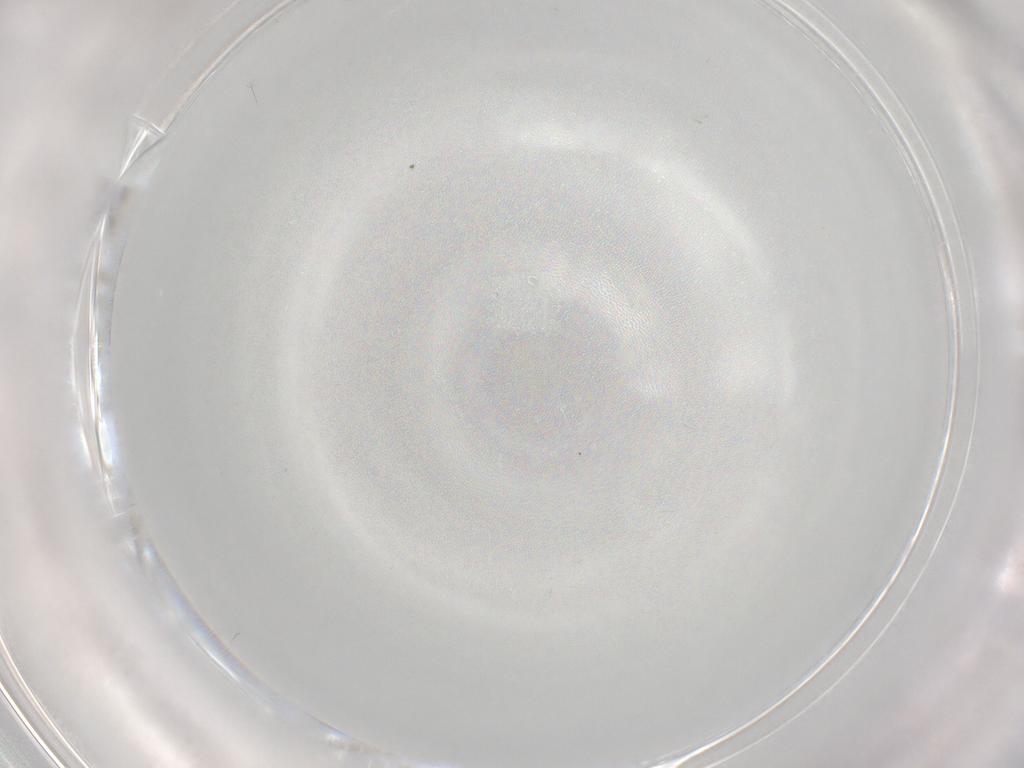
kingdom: Animalia
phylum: Arthropoda
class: Insecta
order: Diptera
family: Cecidomyiidae
